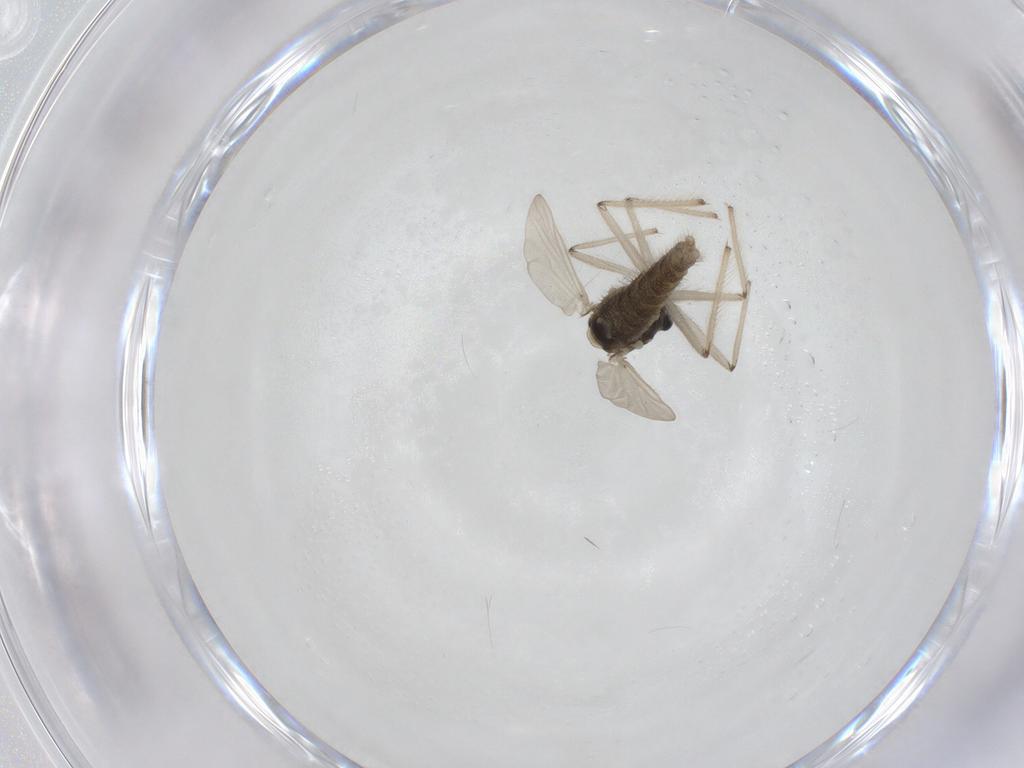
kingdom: Animalia
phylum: Arthropoda
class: Insecta
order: Diptera
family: Chironomidae
